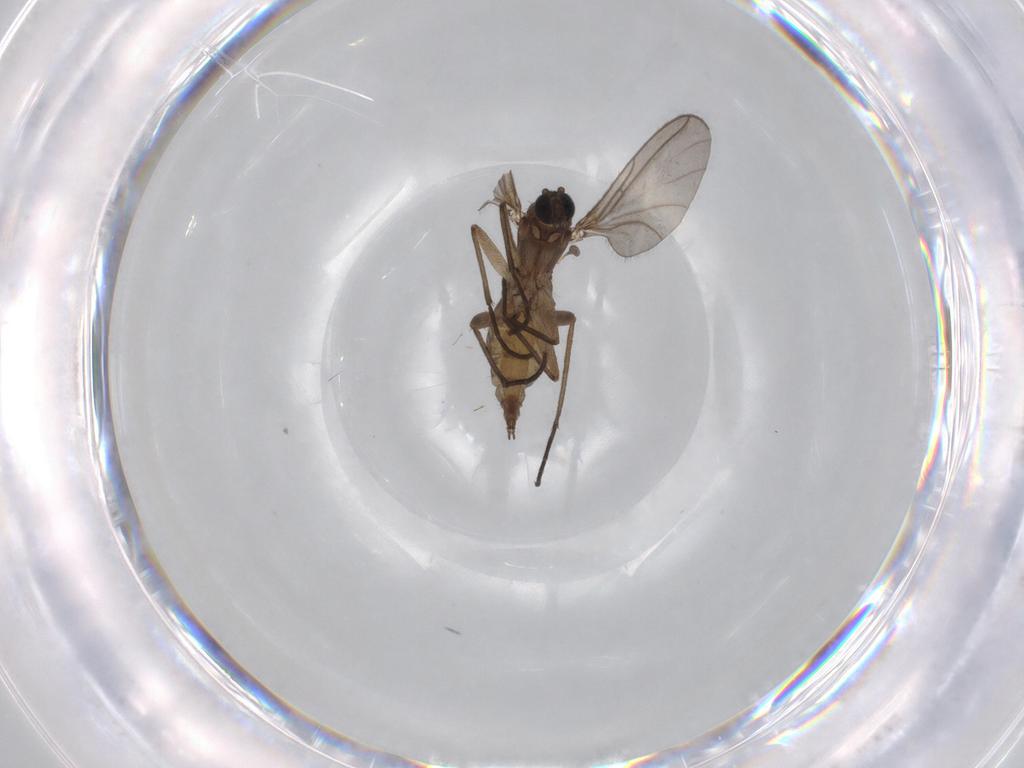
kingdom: Animalia
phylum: Arthropoda
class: Insecta
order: Diptera
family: Sciaridae
